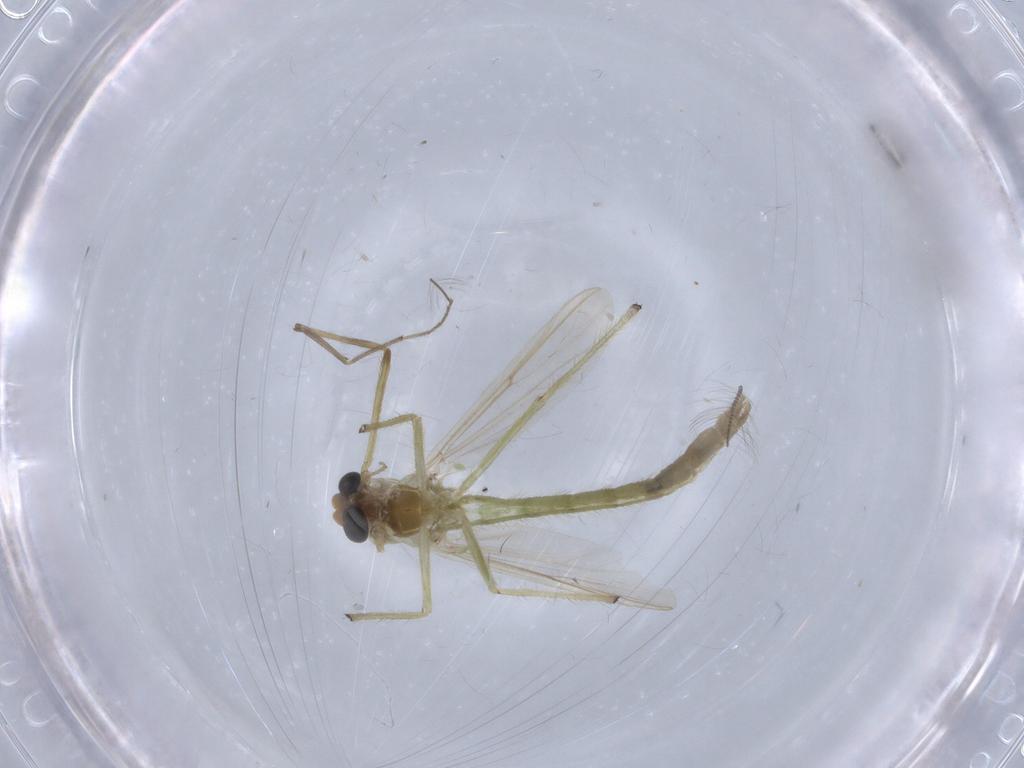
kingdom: Animalia
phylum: Arthropoda
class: Insecta
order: Diptera
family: Chironomidae
